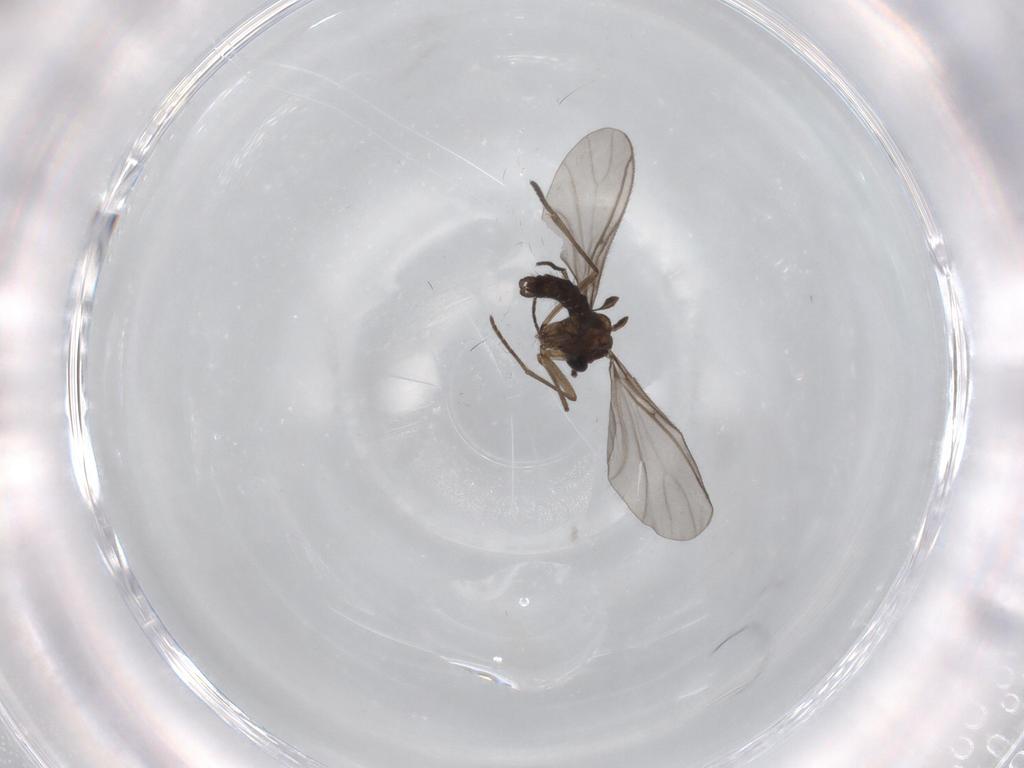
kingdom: Animalia
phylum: Arthropoda
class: Insecta
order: Diptera
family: Sciaridae
